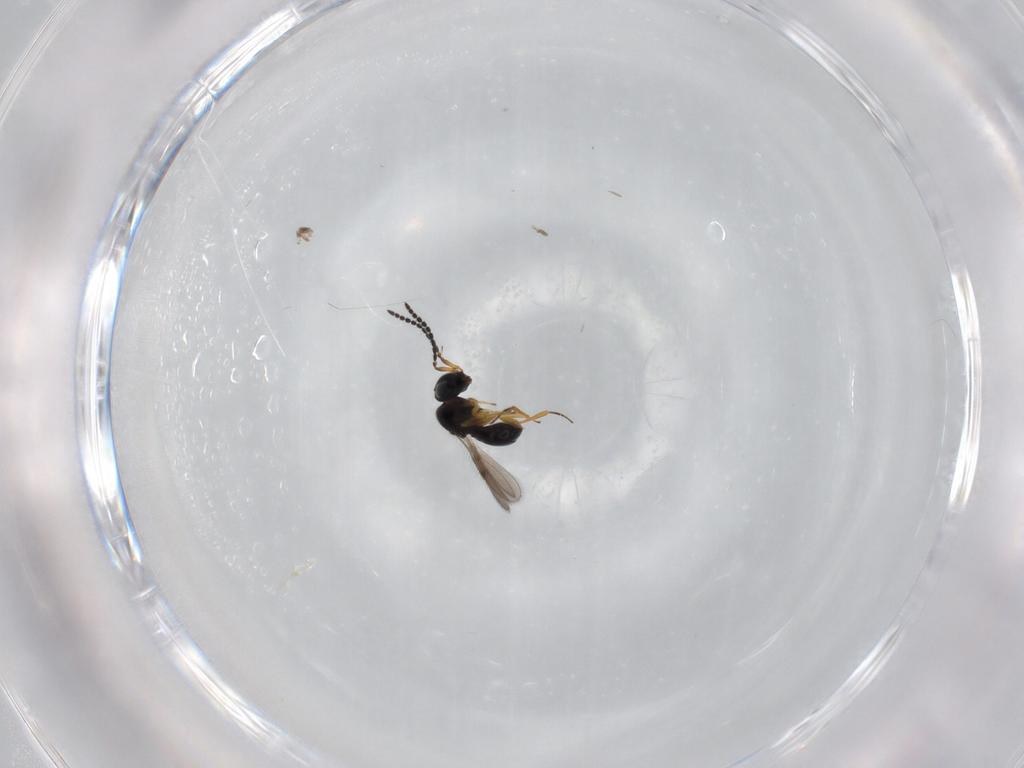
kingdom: Animalia
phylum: Arthropoda
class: Insecta
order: Hymenoptera
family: Scelionidae
